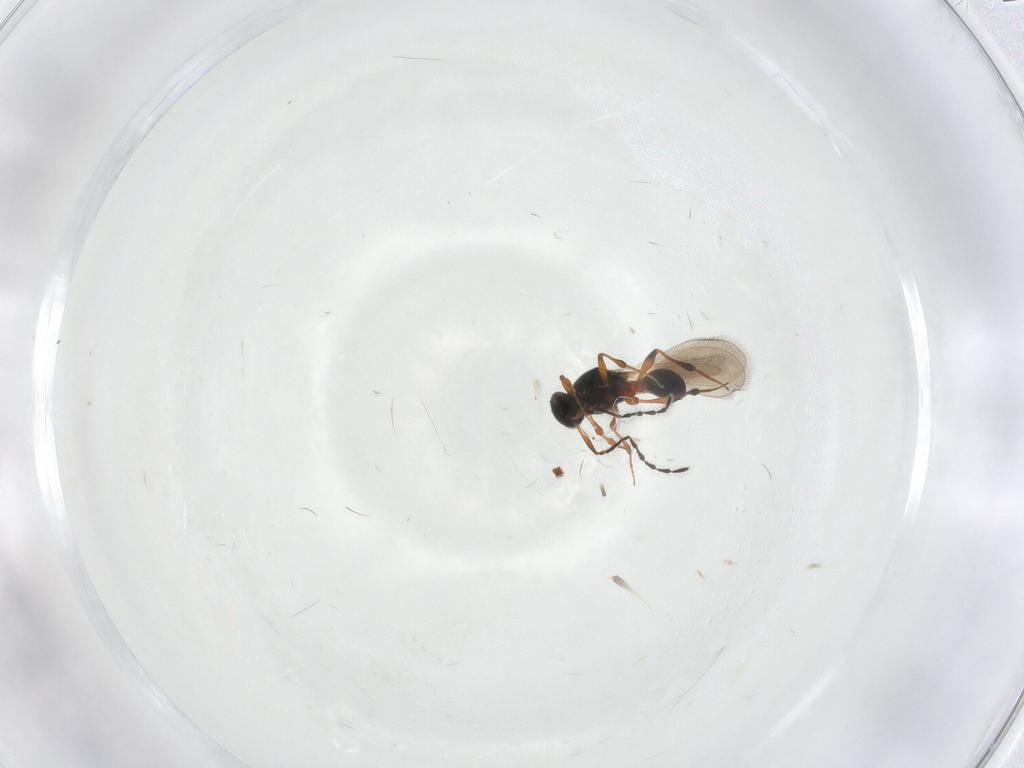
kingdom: Animalia
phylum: Arthropoda
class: Insecta
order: Hymenoptera
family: Platygastridae
